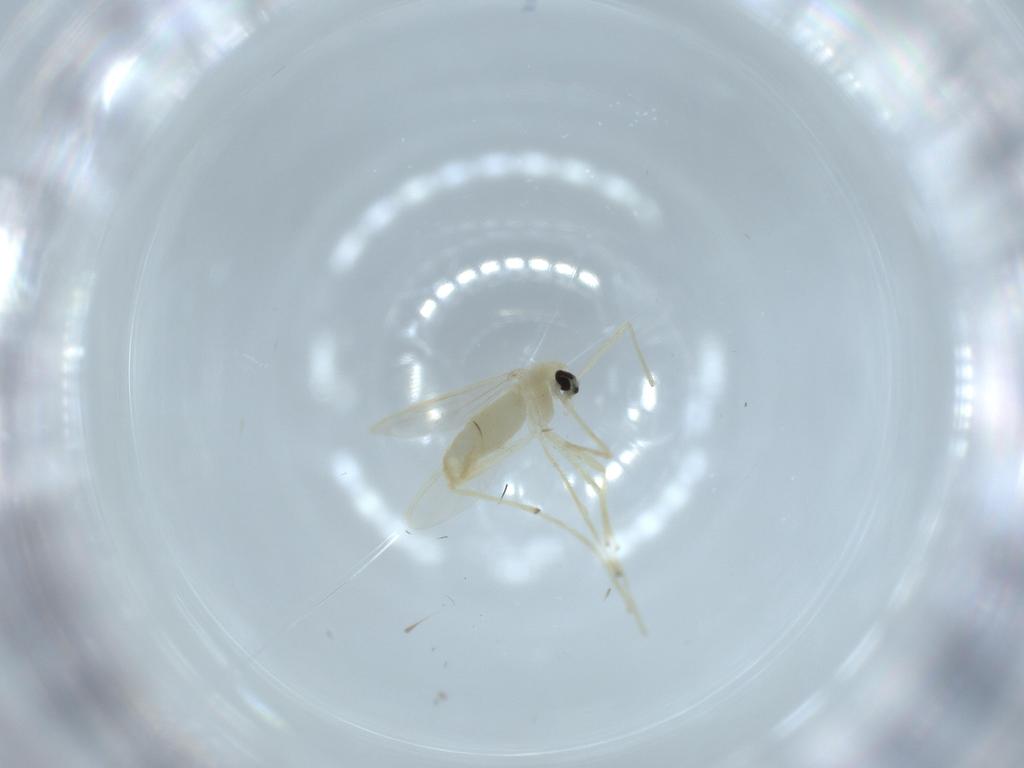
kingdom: Animalia
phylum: Arthropoda
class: Insecta
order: Diptera
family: Chironomidae
